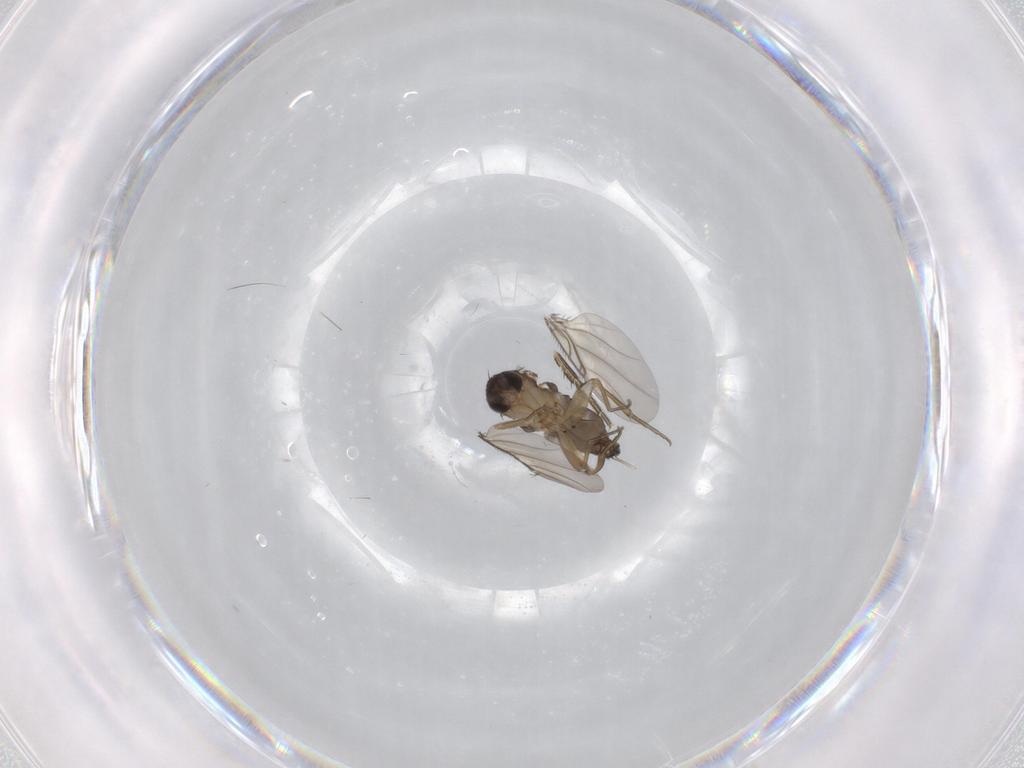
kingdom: Animalia
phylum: Arthropoda
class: Insecta
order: Diptera
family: Phoridae
